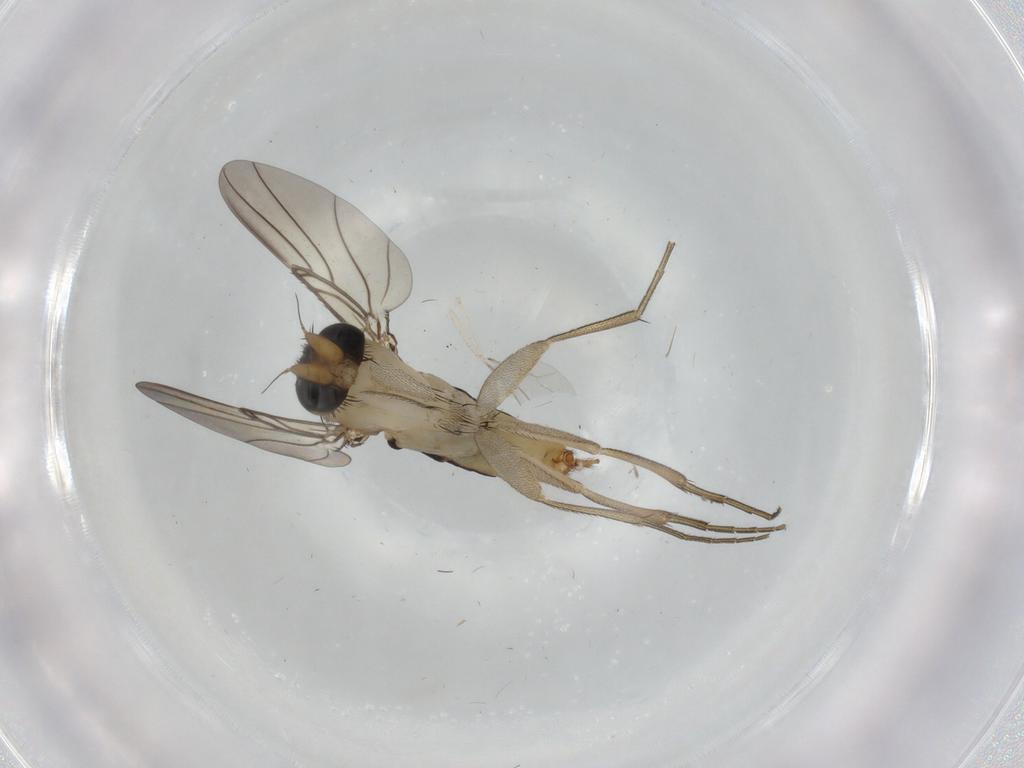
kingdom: Animalia
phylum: Arthropoda
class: Insecta
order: Diptera
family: Phoridae
